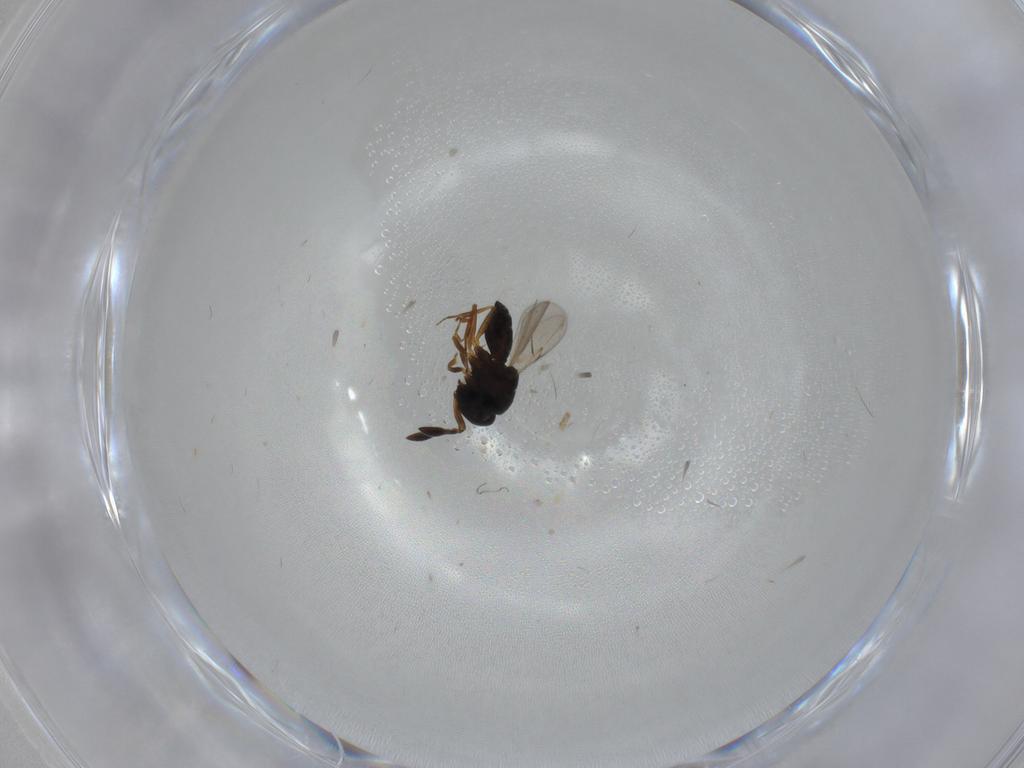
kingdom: Animalia
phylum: Arthropoda
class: Insecta
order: Hymenoptera
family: Scelionidae
